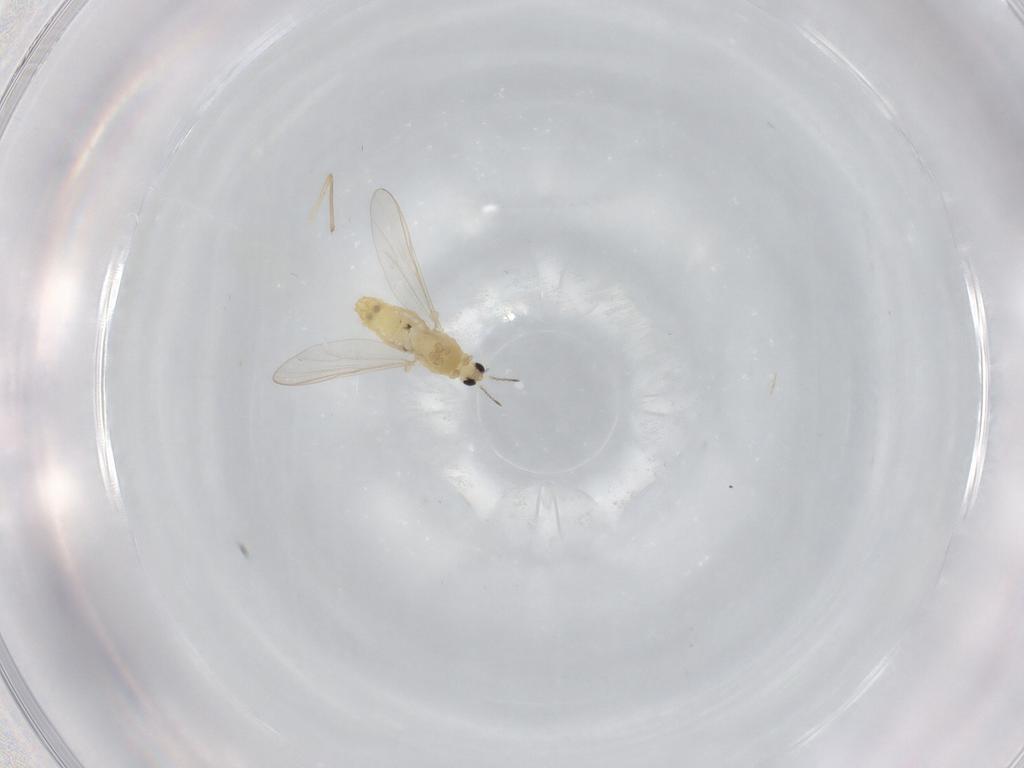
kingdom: Animalia
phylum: Arthropoda
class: Insecta
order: Diptera
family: Chironomidae
